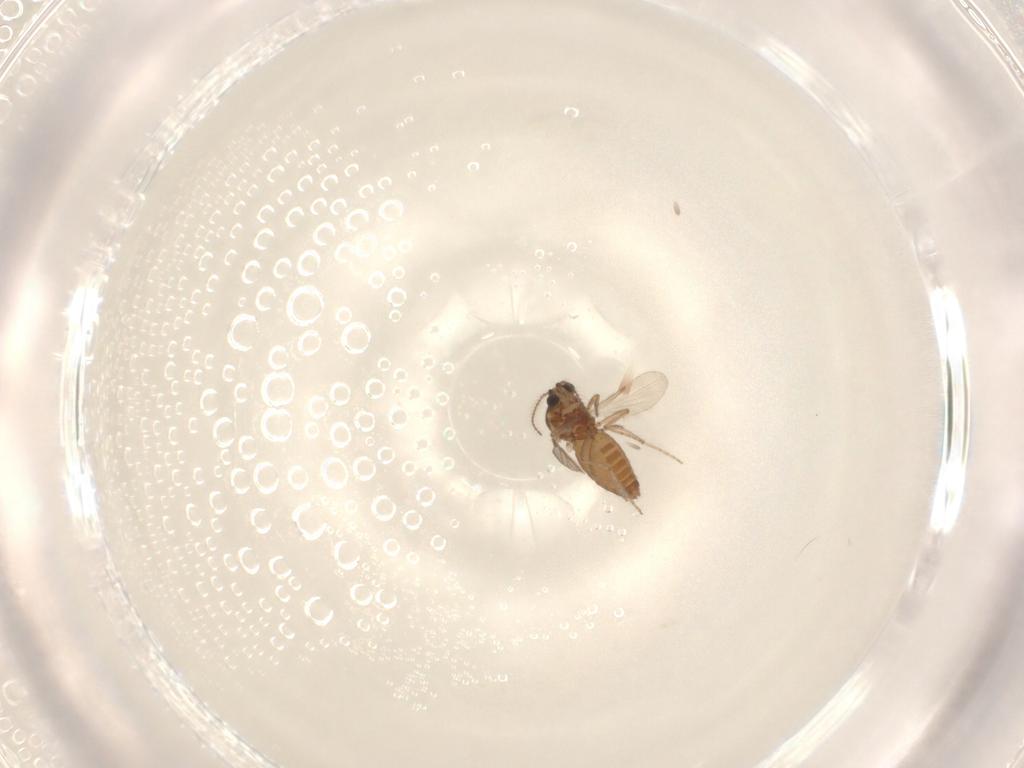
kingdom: Animalia
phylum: Arthropoda
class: Insecta
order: Diptera
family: Ceratopogonidae
